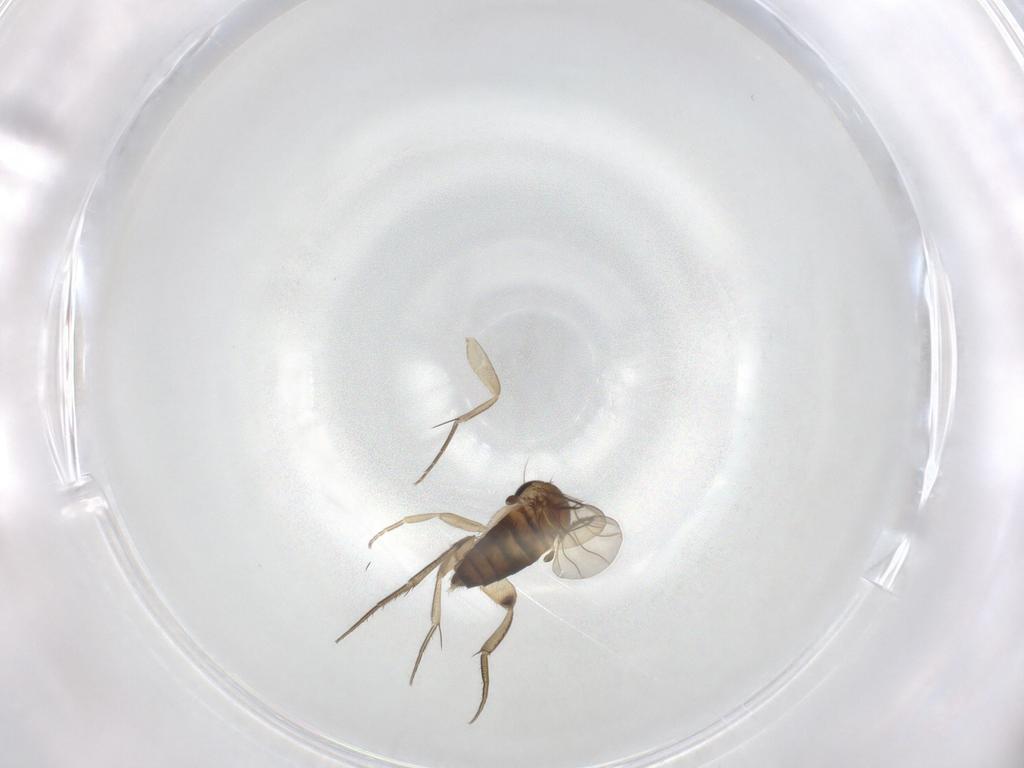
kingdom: Animalia
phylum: Arthropoda
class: Insecta
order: Diptera
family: Phoridae
